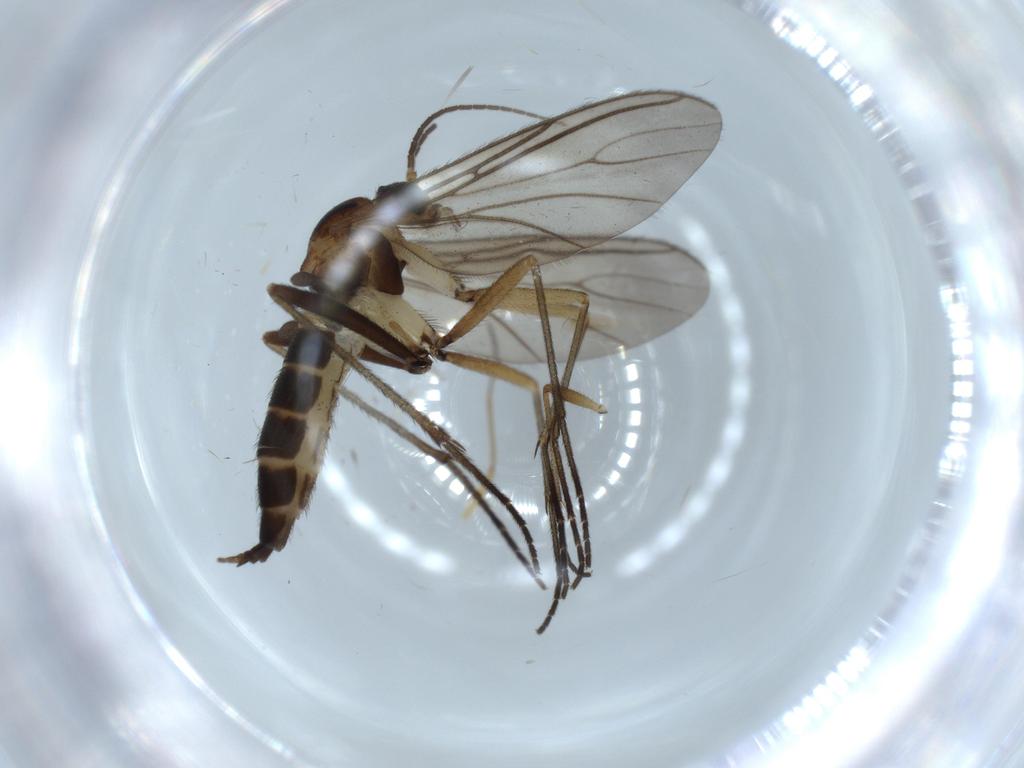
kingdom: Animalia
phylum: Arthropoda
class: Insecta
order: Diptera
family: Sciaridae
